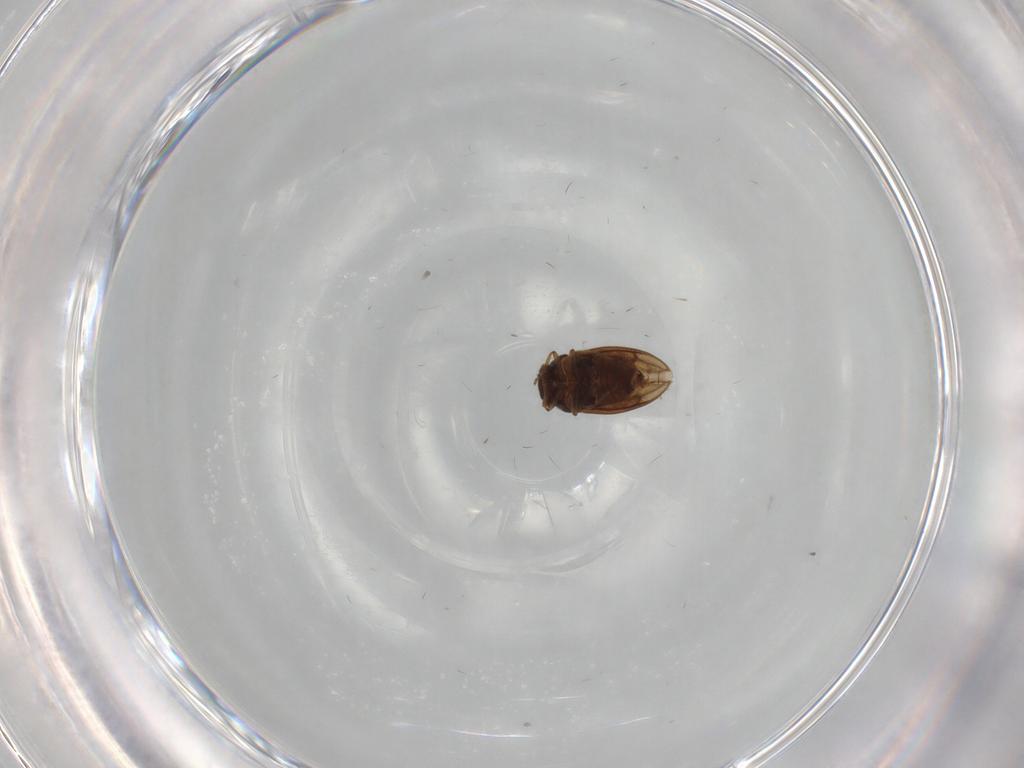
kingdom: Animalia
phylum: Arthropoda
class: Insecta
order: Hemiptera
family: Schizopteridae
